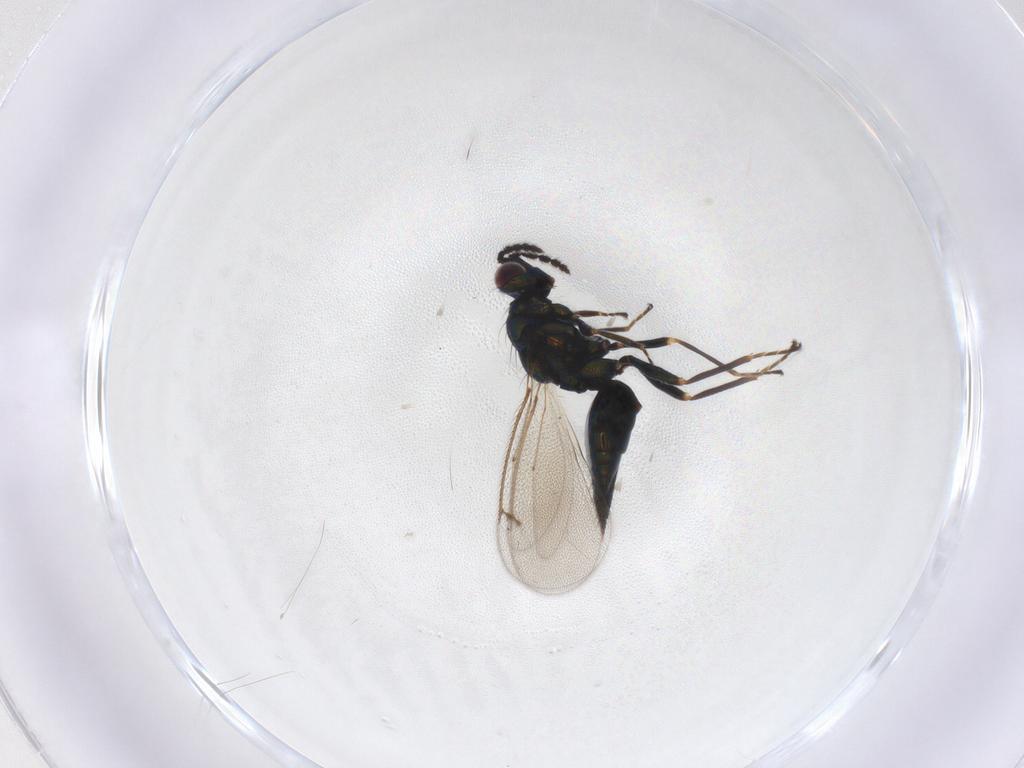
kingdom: Animalia
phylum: Arthropoda
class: Insecta
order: Hymenoptera
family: Eulophidae
